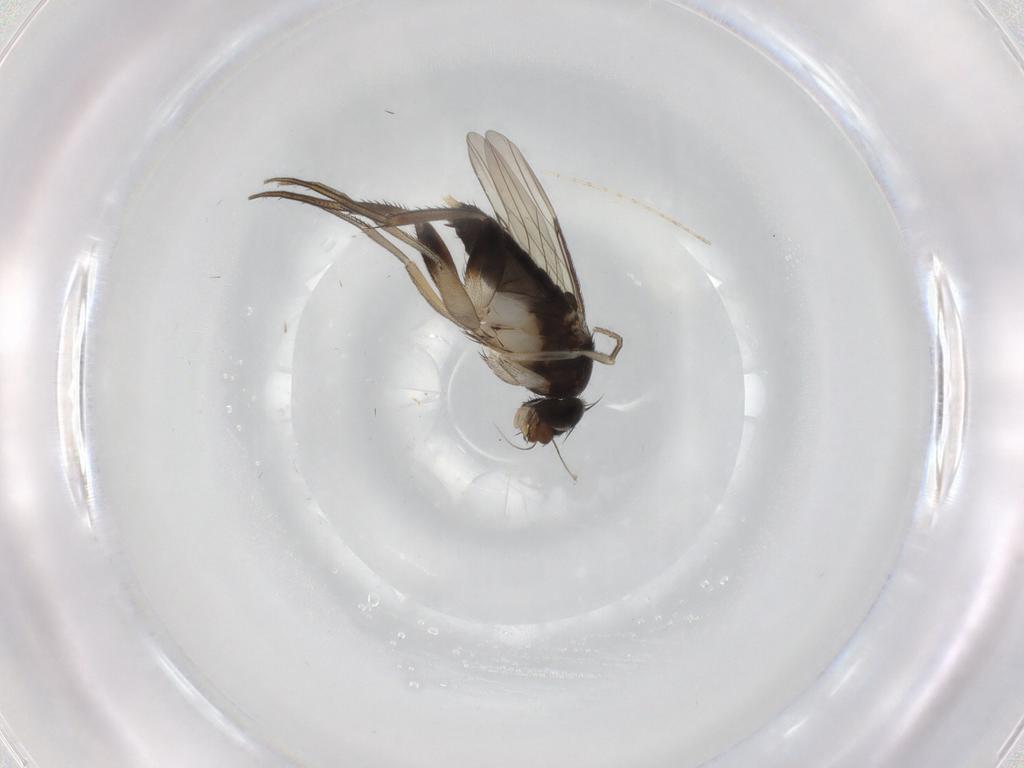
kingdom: Animalia
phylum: Arthropoda
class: Insecta
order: Diptera
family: Phoridae
